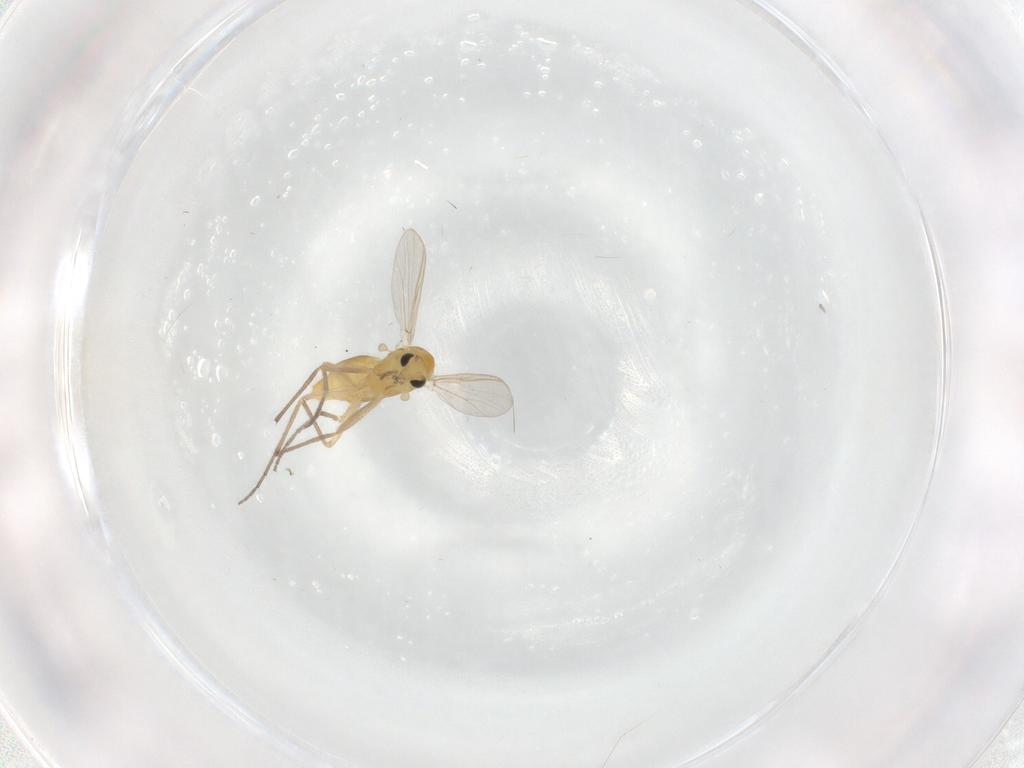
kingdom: Animalia
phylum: Arthropoda
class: Insecta
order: Diptera
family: Chironomidae
